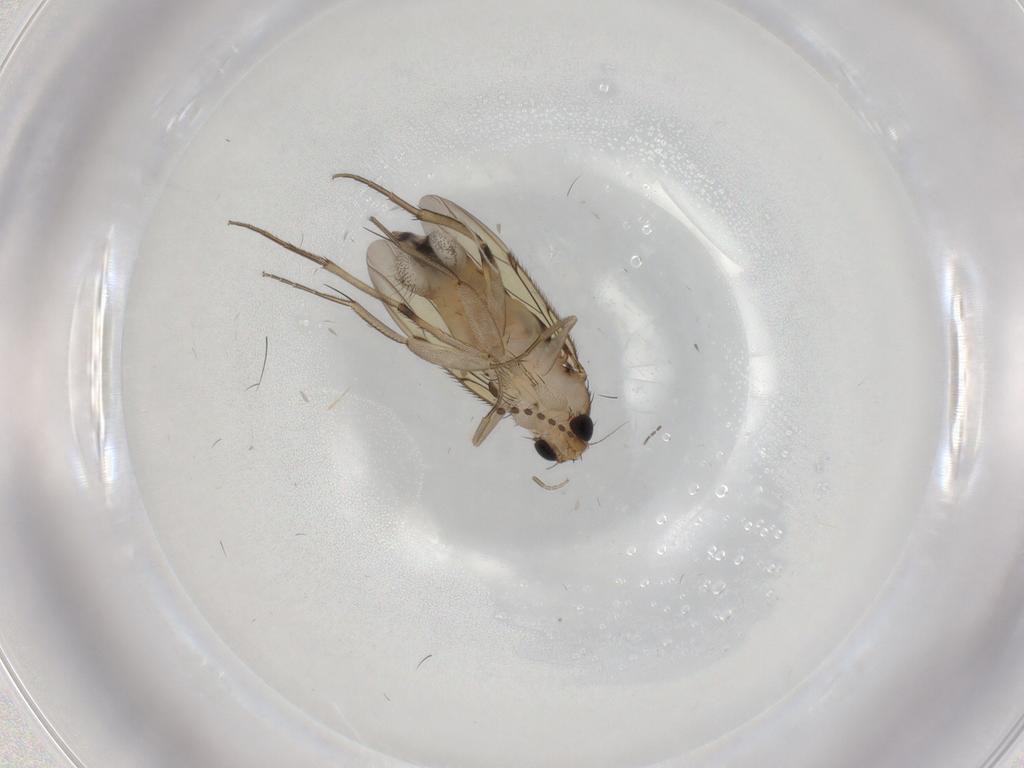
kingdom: Animalia
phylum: Arthropoda
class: Insecta
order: Diptera
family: Phoridae
